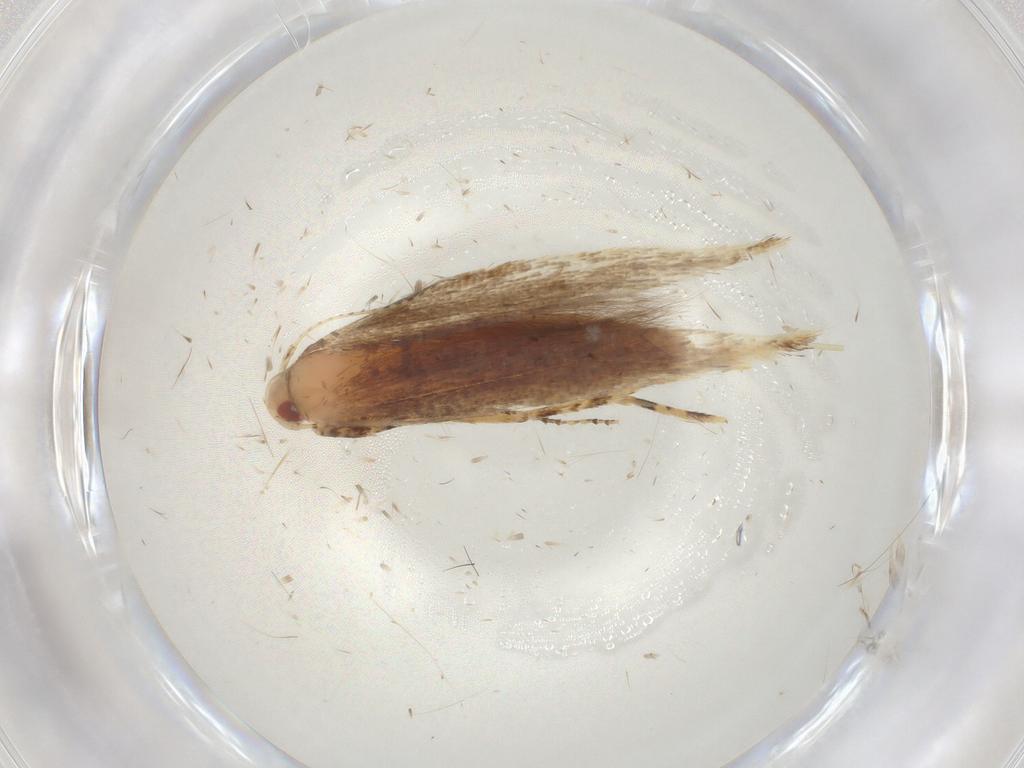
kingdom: Animalia
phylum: Arthropoda
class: Insecta
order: Lepidoptera
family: Cosmopterigidae
